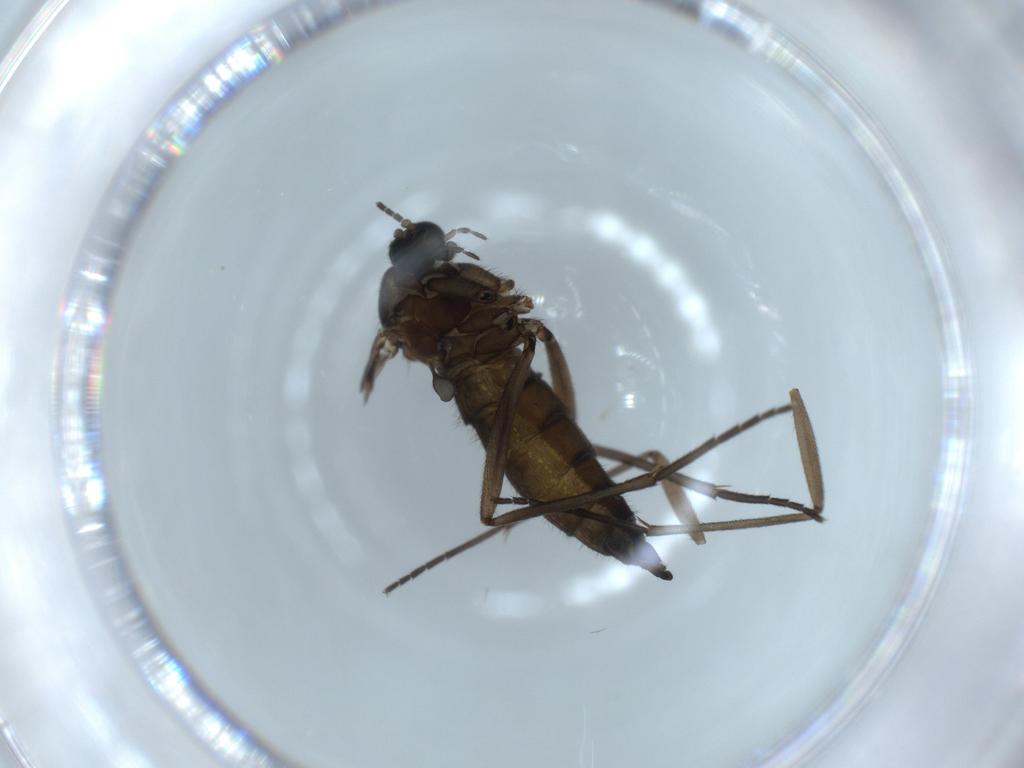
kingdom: Animalia
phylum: Arthropoda
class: Insecta
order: Diptera
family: Sciaridae
